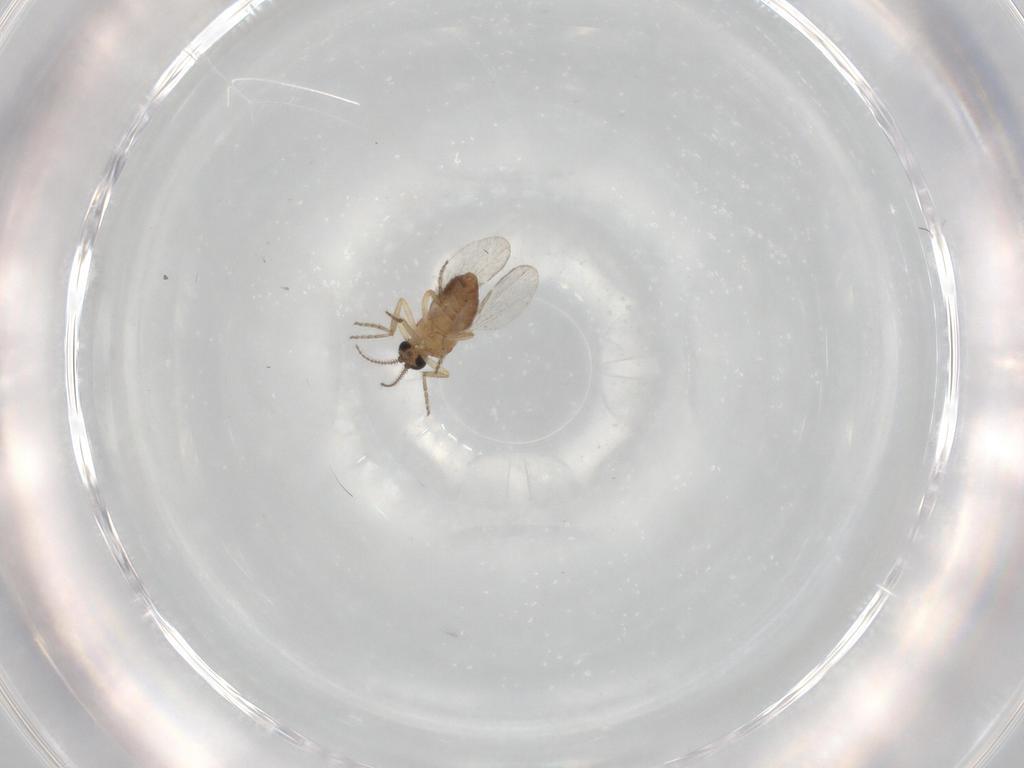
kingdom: Animalia
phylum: Arthropoda
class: Insecta
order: Diptera
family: Ceratopogonidae
